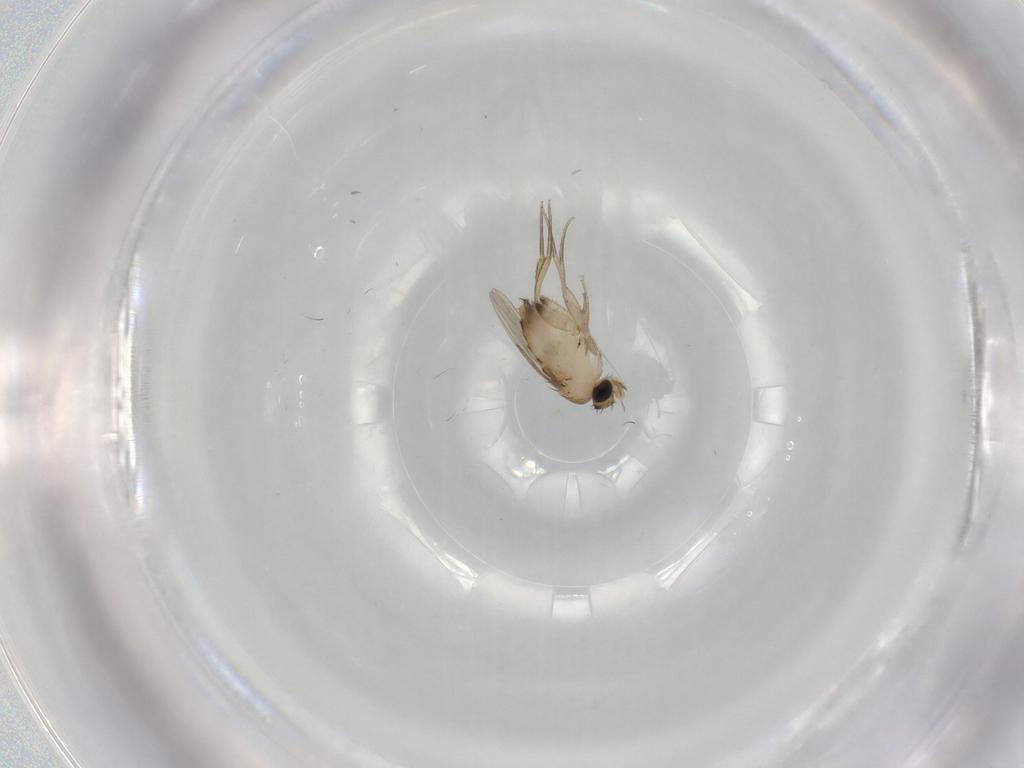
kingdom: Animalia
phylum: Arthropoda
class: Insecta
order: Diptera
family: Cecidomyiidae
